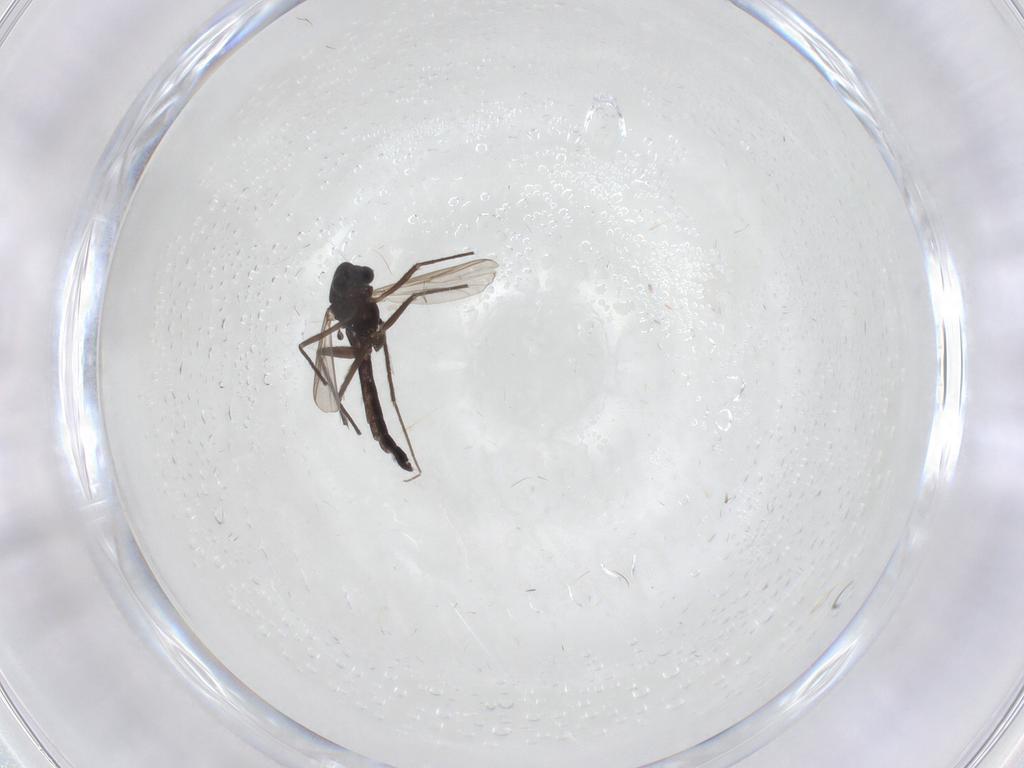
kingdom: Animalia
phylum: Arthropoda
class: Insecta
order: Diptera
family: Chironomidae
